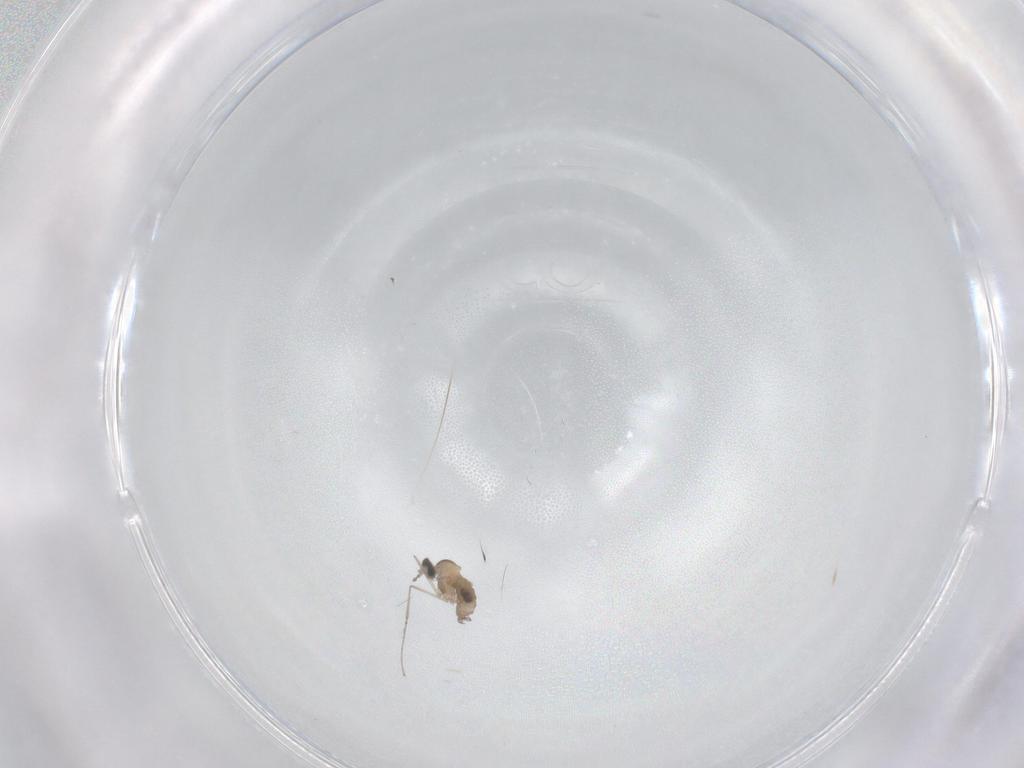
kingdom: Animalia
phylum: Arthropoda
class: Insecta
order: Diptera
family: Cecidomyiidae
